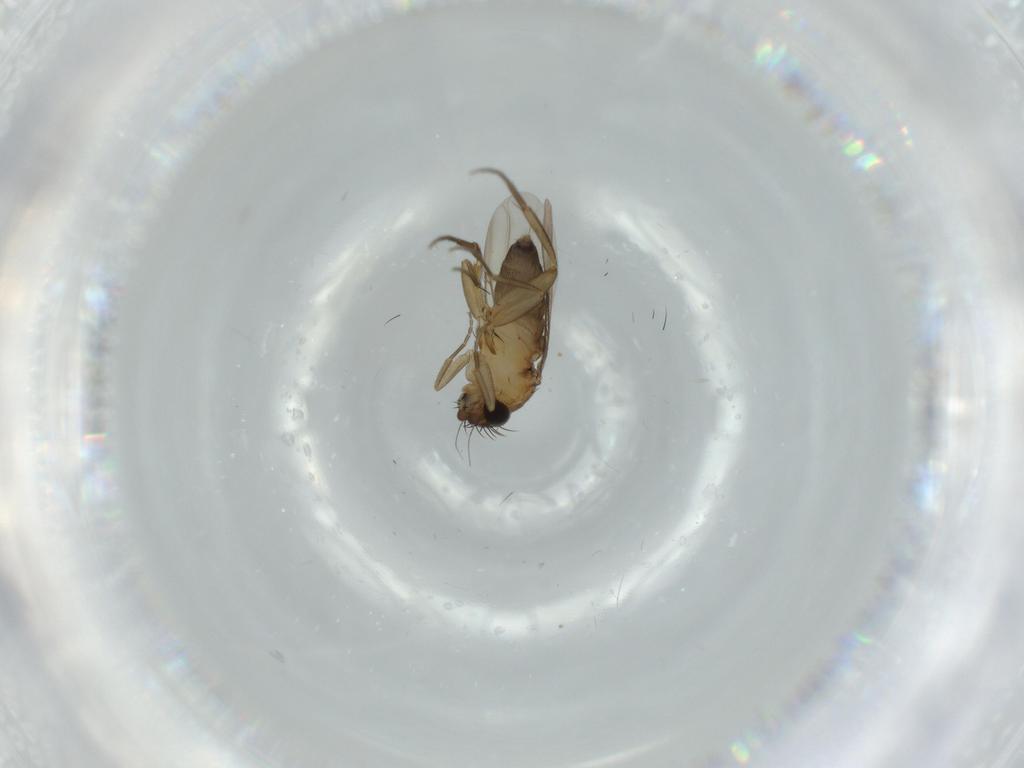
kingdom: Animalia
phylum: Arthropoda
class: Insecta
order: Diptera
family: Phoridae
